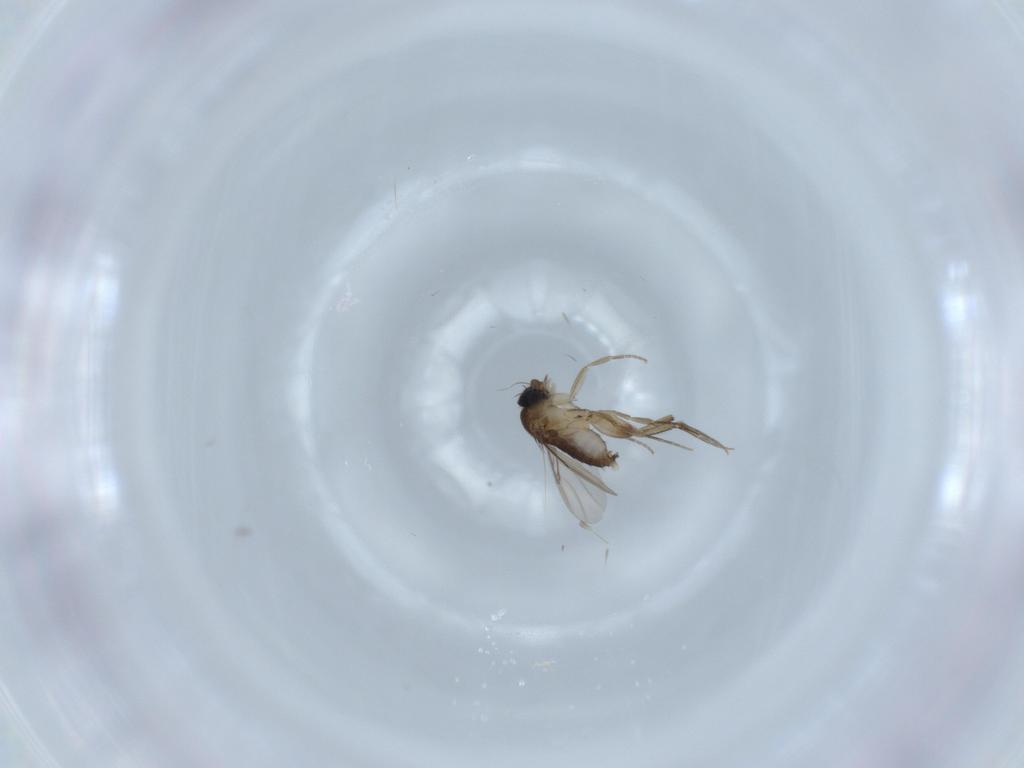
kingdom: Animalia
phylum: Arthropoda
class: Insecta
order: Diptera
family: Phoridae
